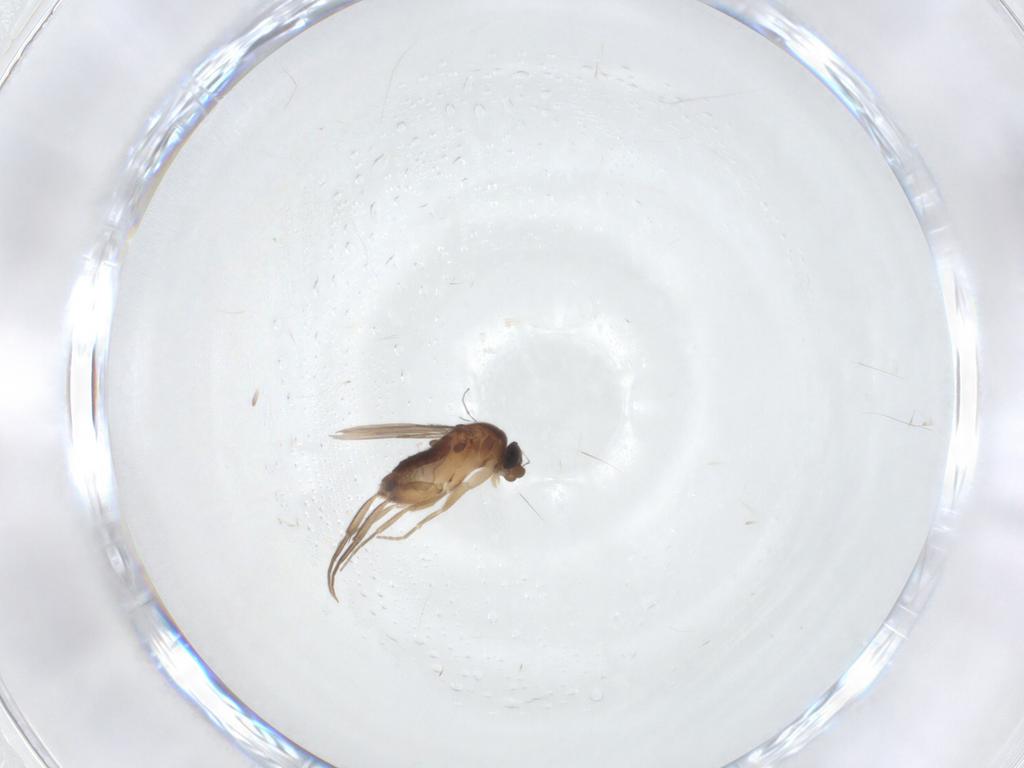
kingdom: Animalia
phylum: Arthropoda
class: Insecta
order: Diptera
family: Phoridae
